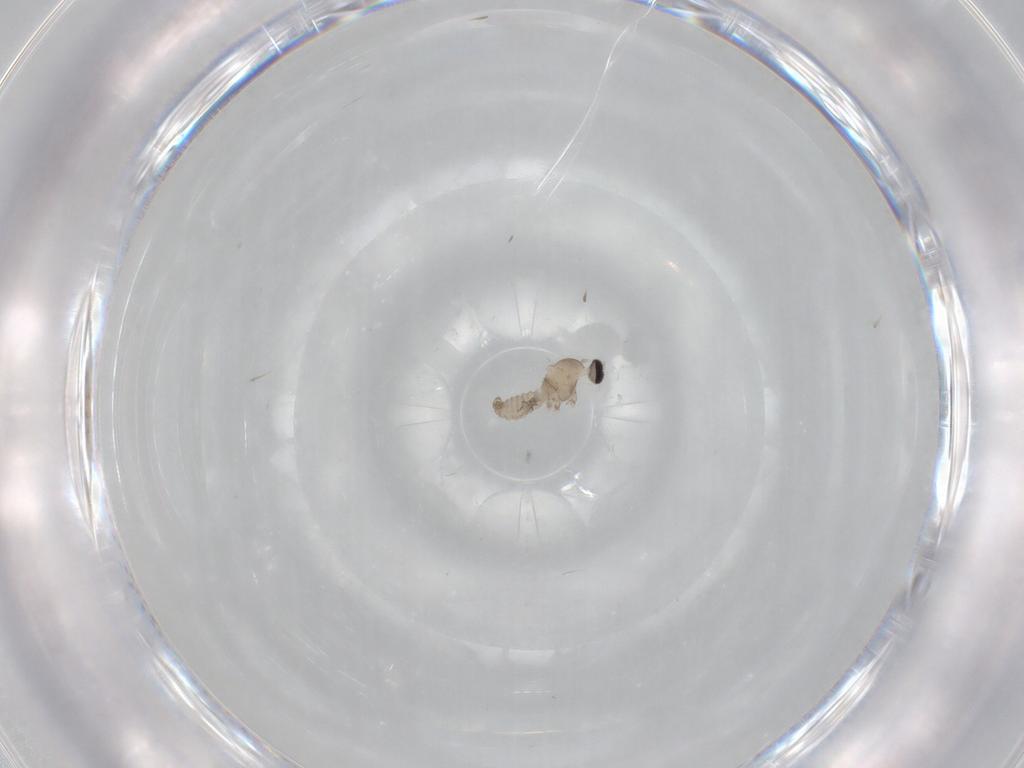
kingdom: Animalia
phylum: Arthropoda
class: Insecta
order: Diptera
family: Cecidomyiidae
